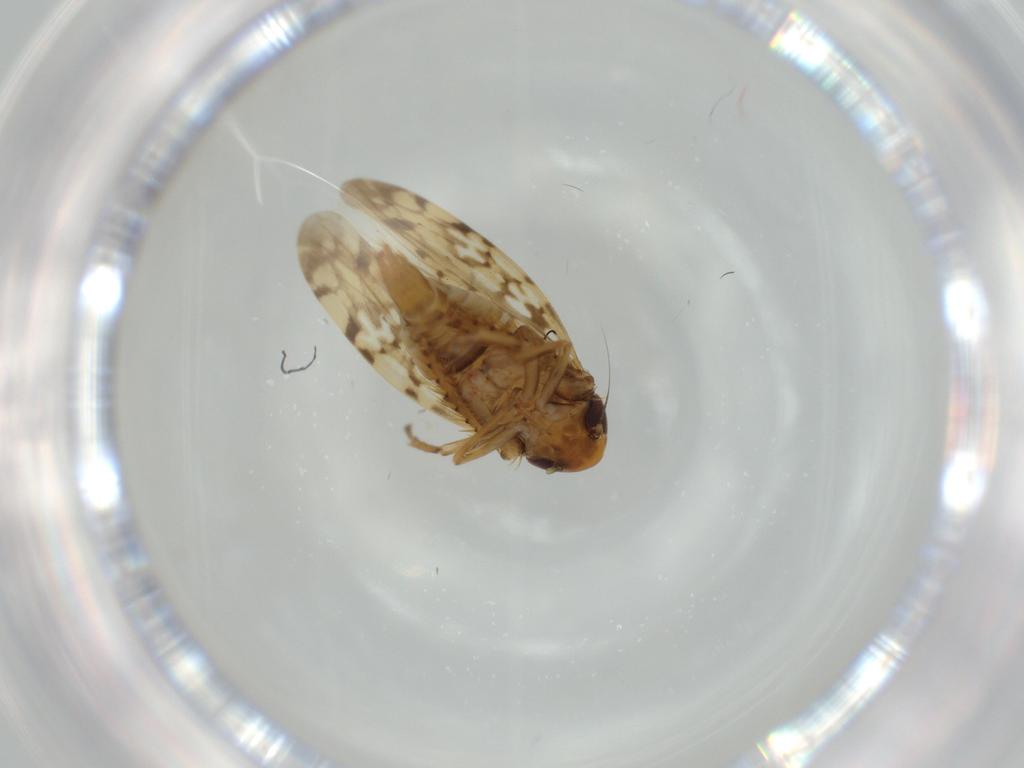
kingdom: Animalia
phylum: Arthropoda
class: Insecta
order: Hemiptera
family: Cicadellidae
